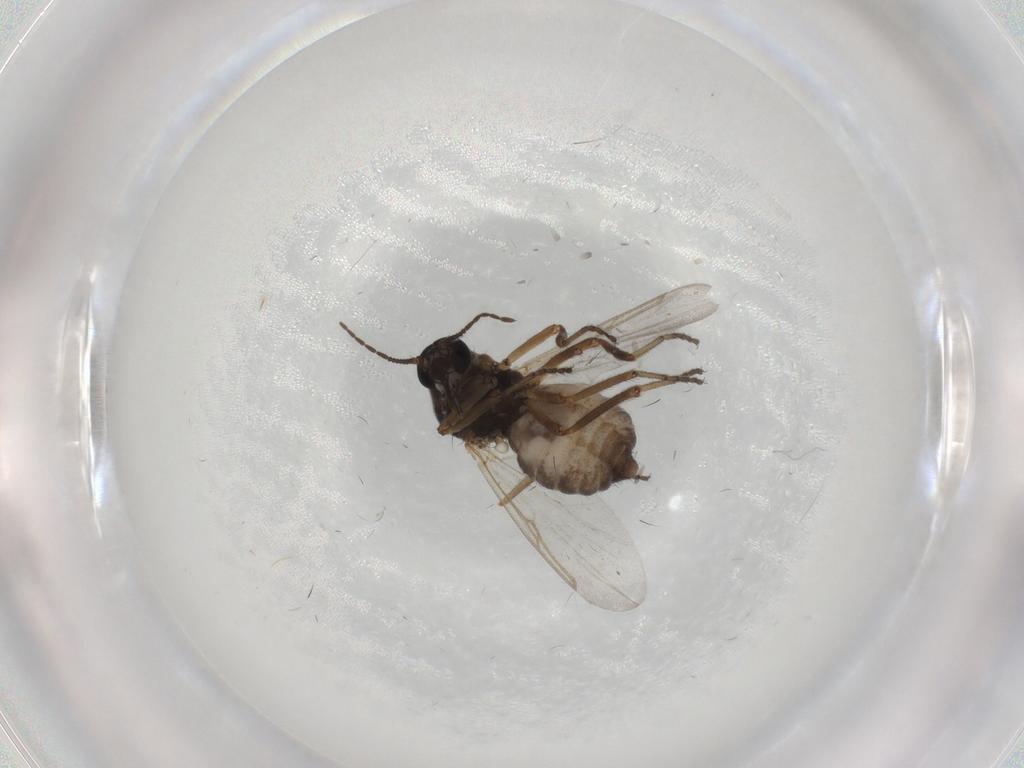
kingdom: Animalia
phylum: Arthropoda
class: Insecta
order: Diptera
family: Ceratopogonidae
